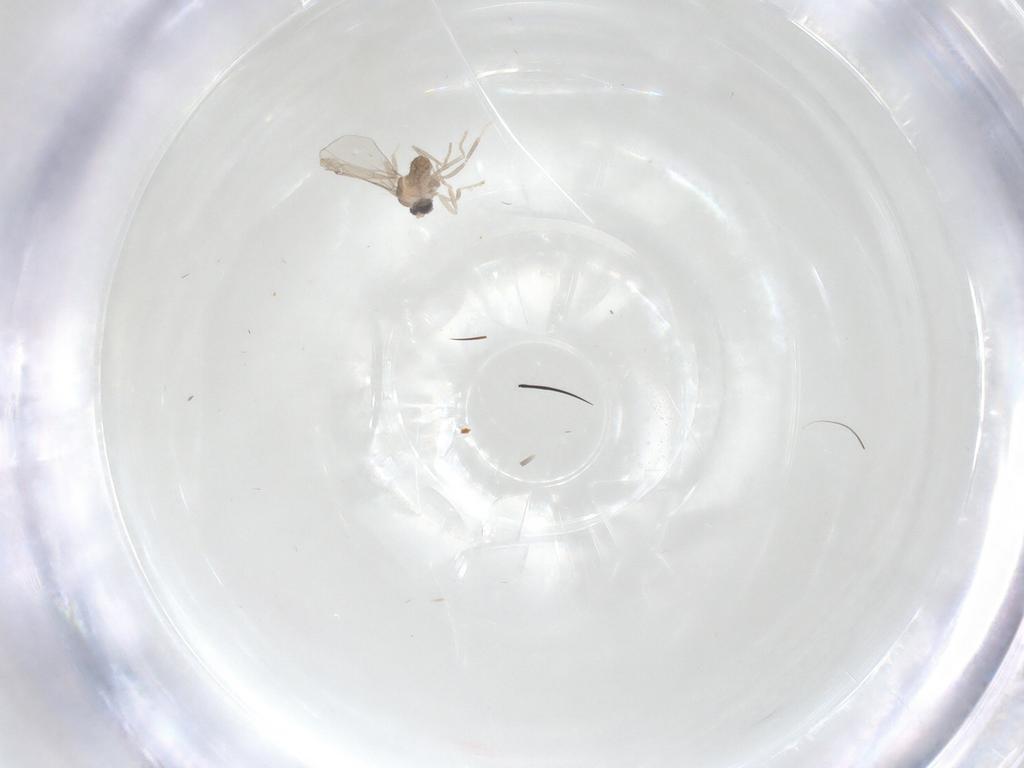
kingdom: Animalia
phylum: Arthropoda
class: Insecta
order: Diptera
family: Chironomidae
